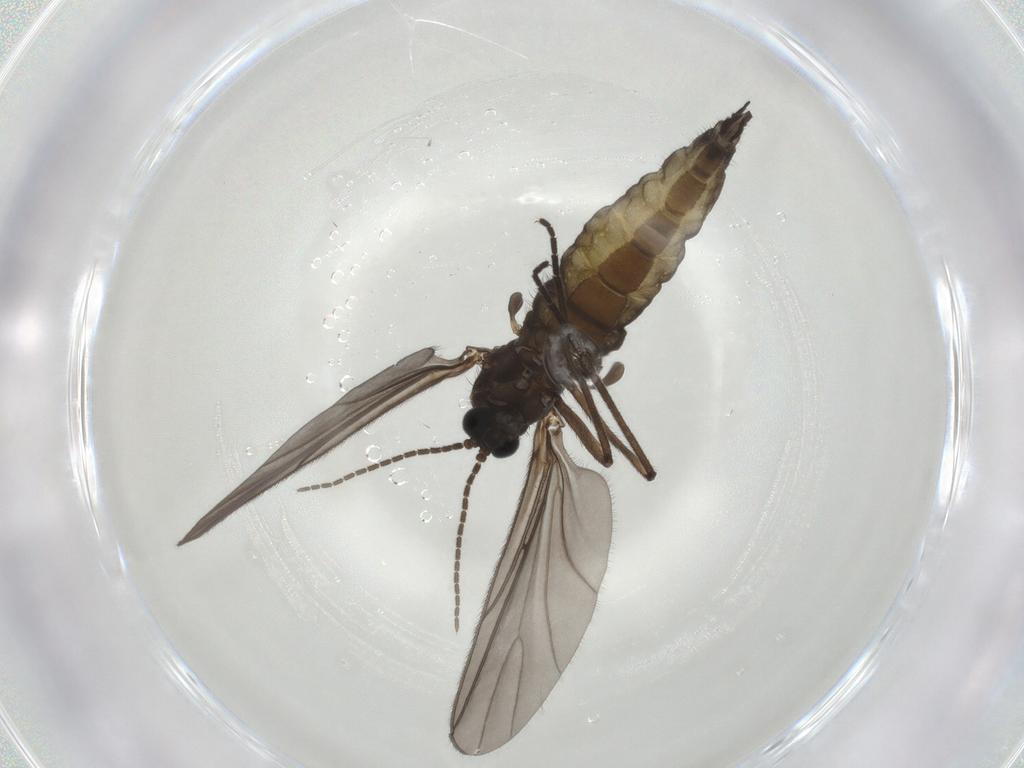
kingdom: Animalia
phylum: Arthropoda
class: Insecta
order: Diptera
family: Sciaridae
